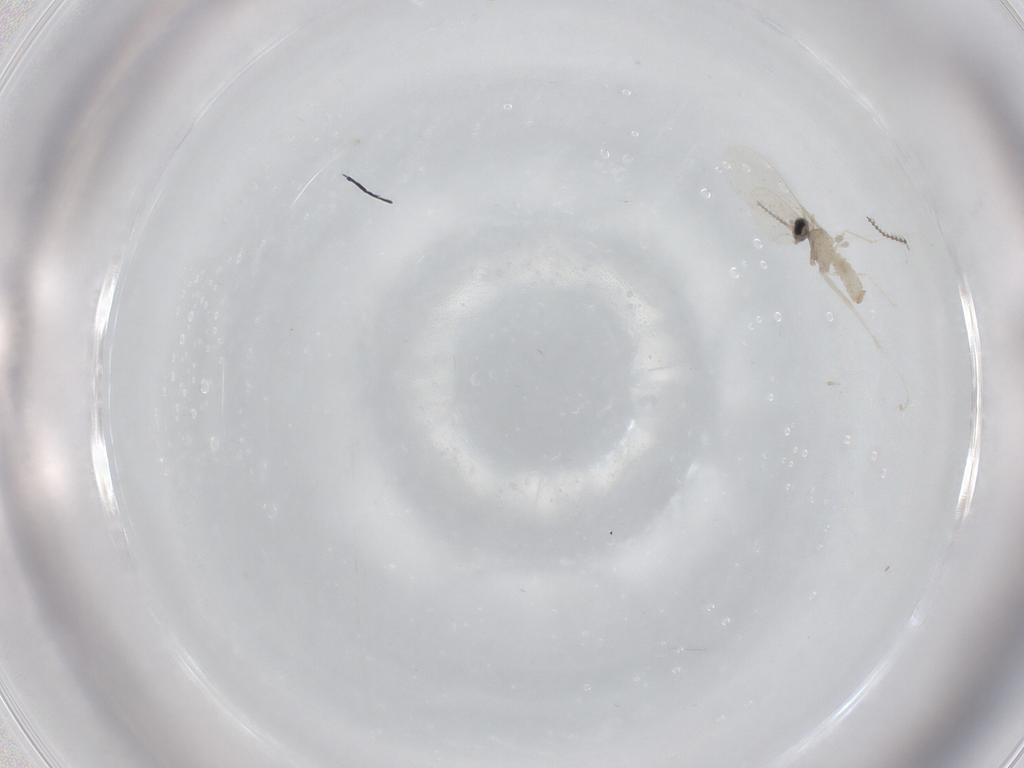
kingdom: Animalia
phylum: Arthropoda
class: Insecta
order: Diptera
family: Cecidomyiidae
